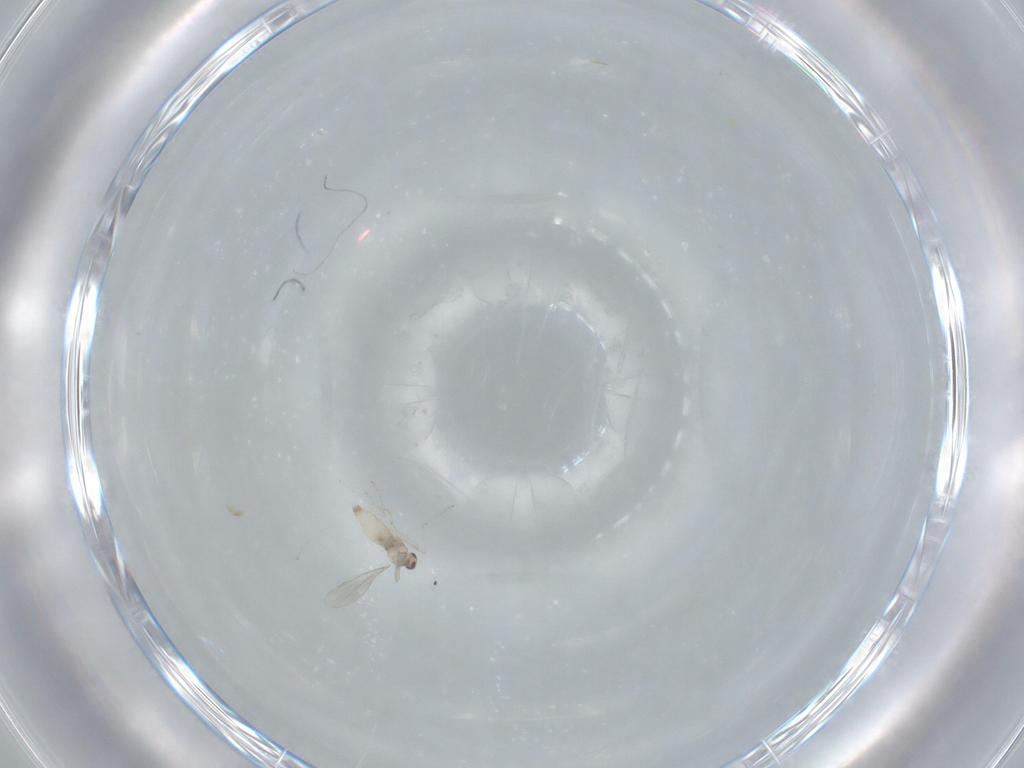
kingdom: Animalia
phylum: Arthropoda
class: Insecta
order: Diptera
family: Cecidomyiidae
